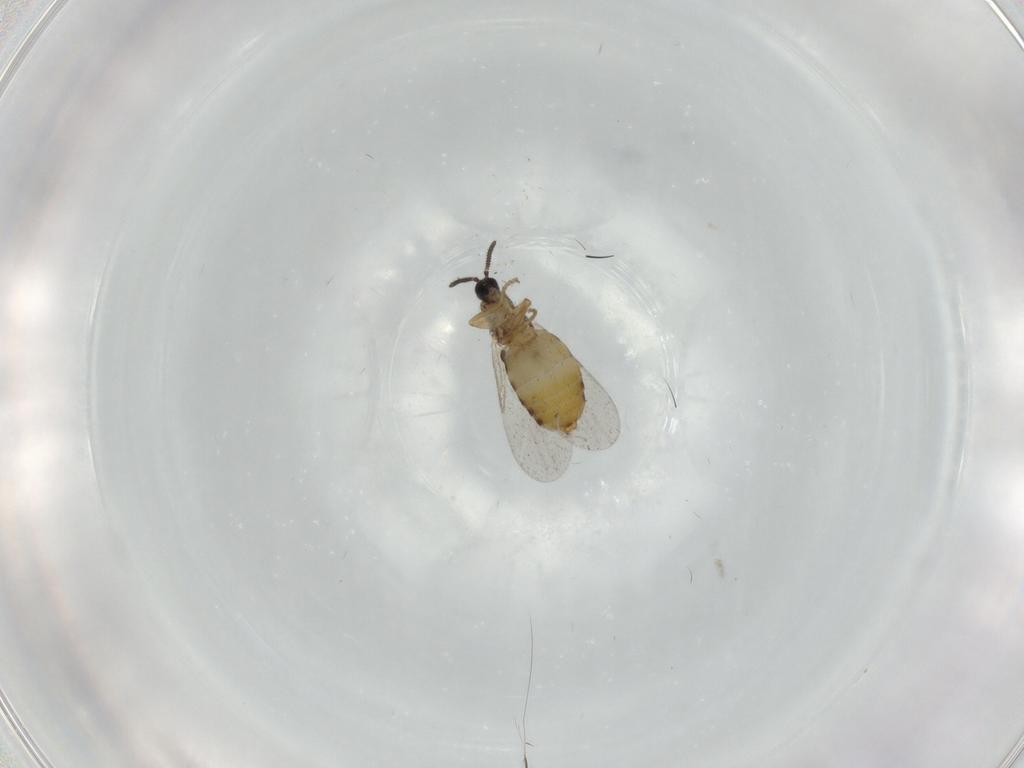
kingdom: Animalia
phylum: Arthropoda
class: Insecta
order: Diptera
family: Scatopsidae
